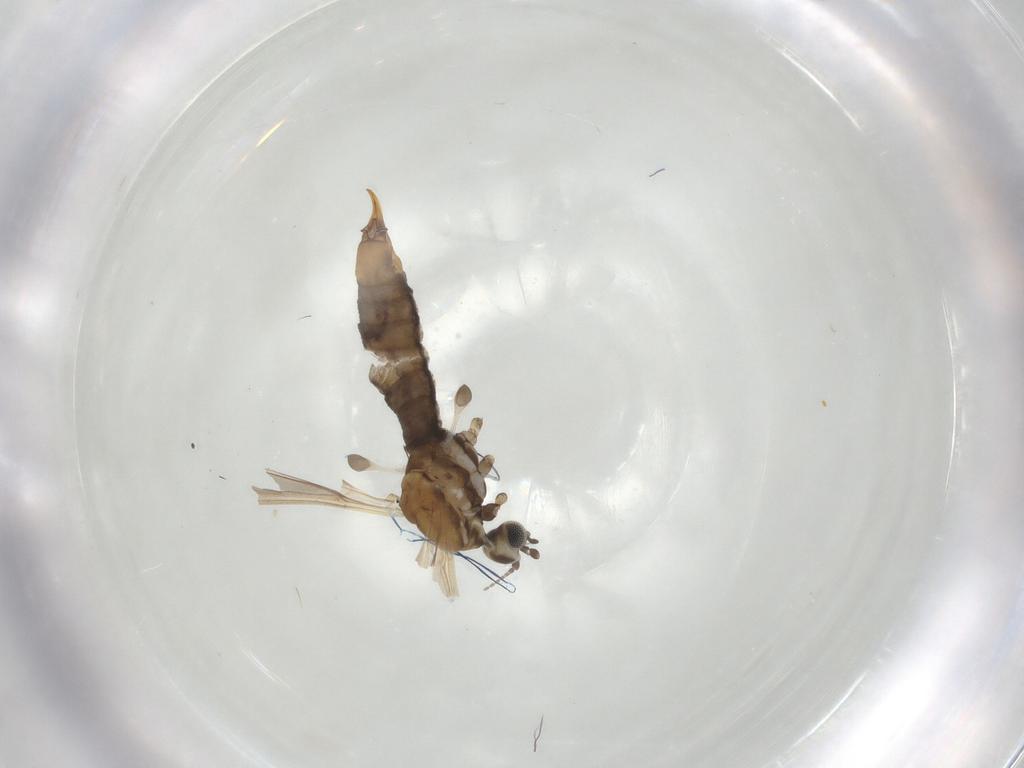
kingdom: Animalia
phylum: Arthropoda
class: Insecta
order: Diptera
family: Limoniidae
